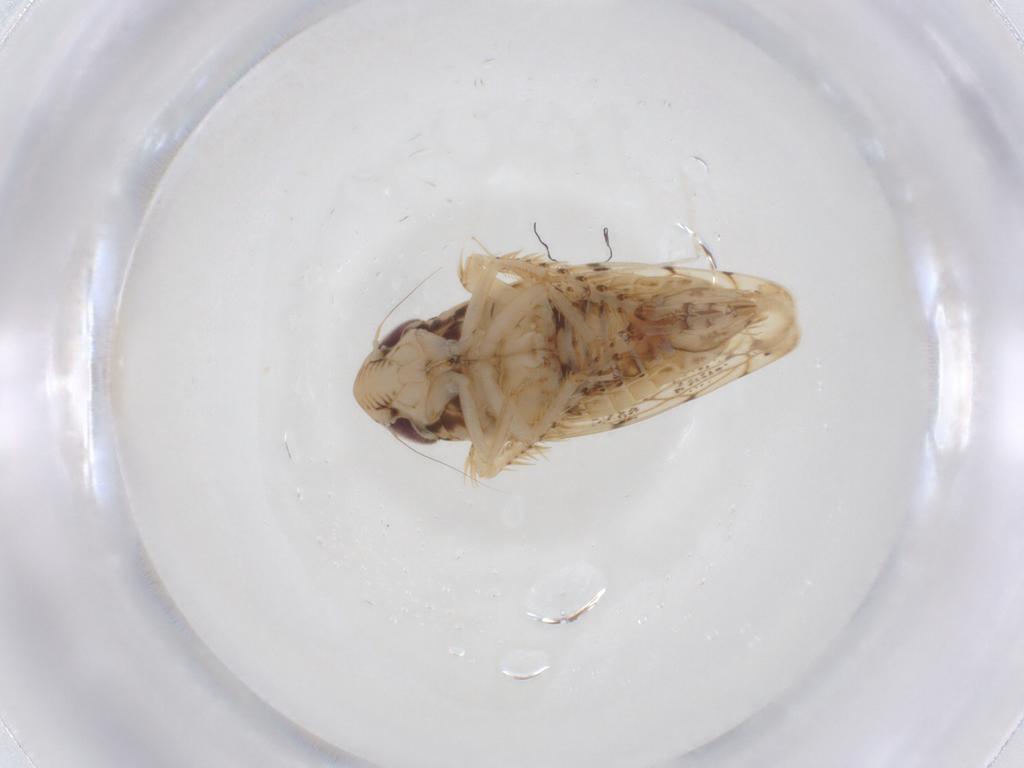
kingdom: Animalia
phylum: Arthropoda
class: Insecta
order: Hemiptera
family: Cicadellidae
